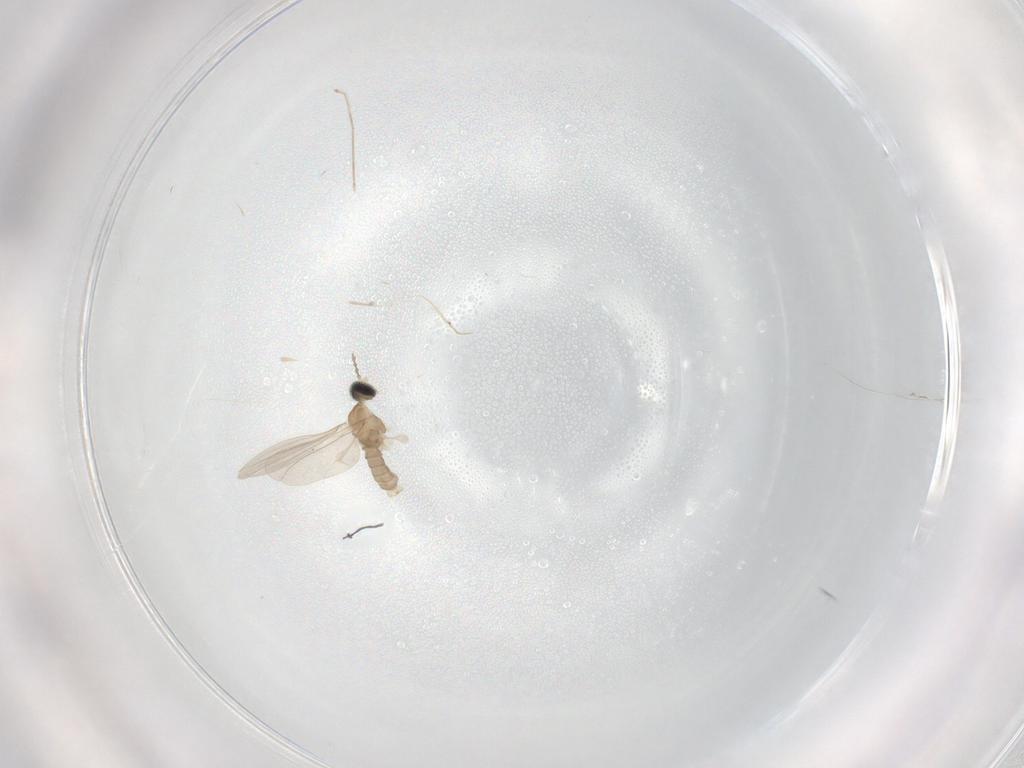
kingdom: Animalia
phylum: Arthropoda
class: Insecta
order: Diptera
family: Cecidomyiidae
